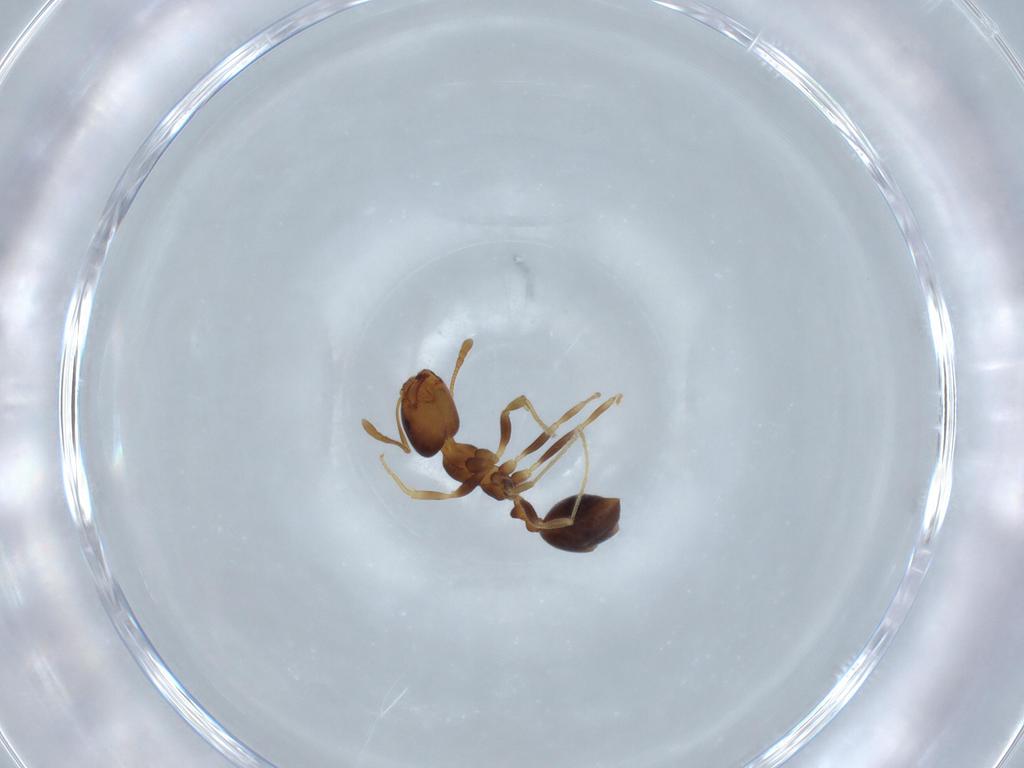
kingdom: Animalia
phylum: Arthropoda
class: Insecta
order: Hymenoptera
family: Formicidae
